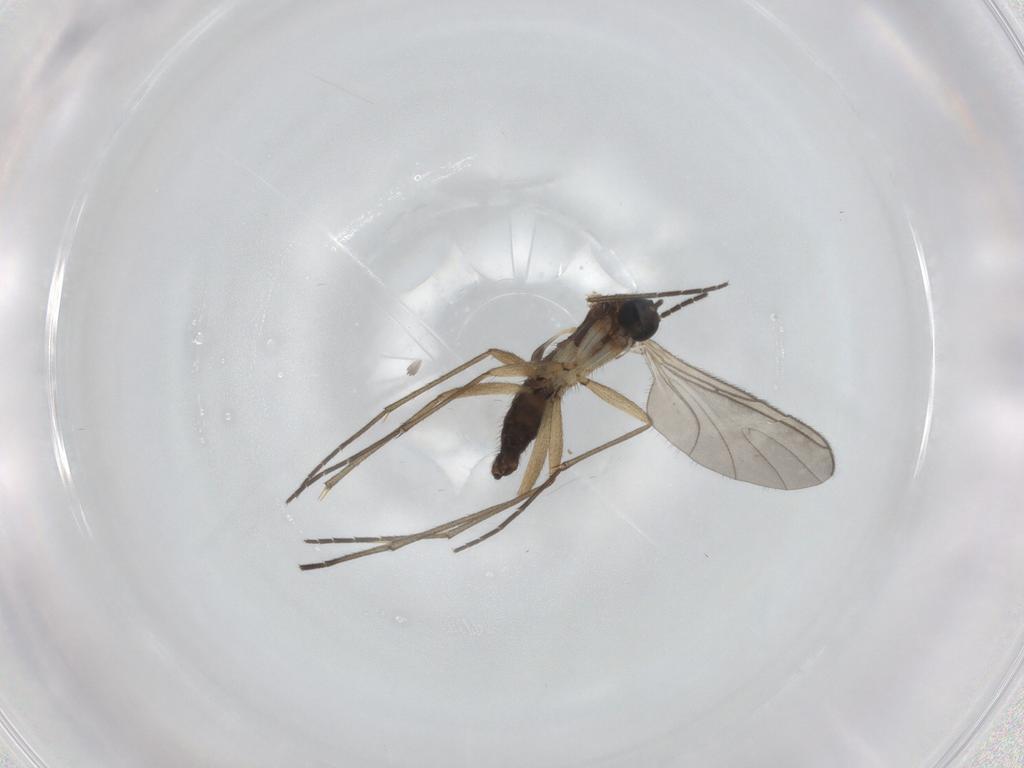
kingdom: Animalia
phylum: Arthropoda
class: Insecta
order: Diptera
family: Sciaridae
